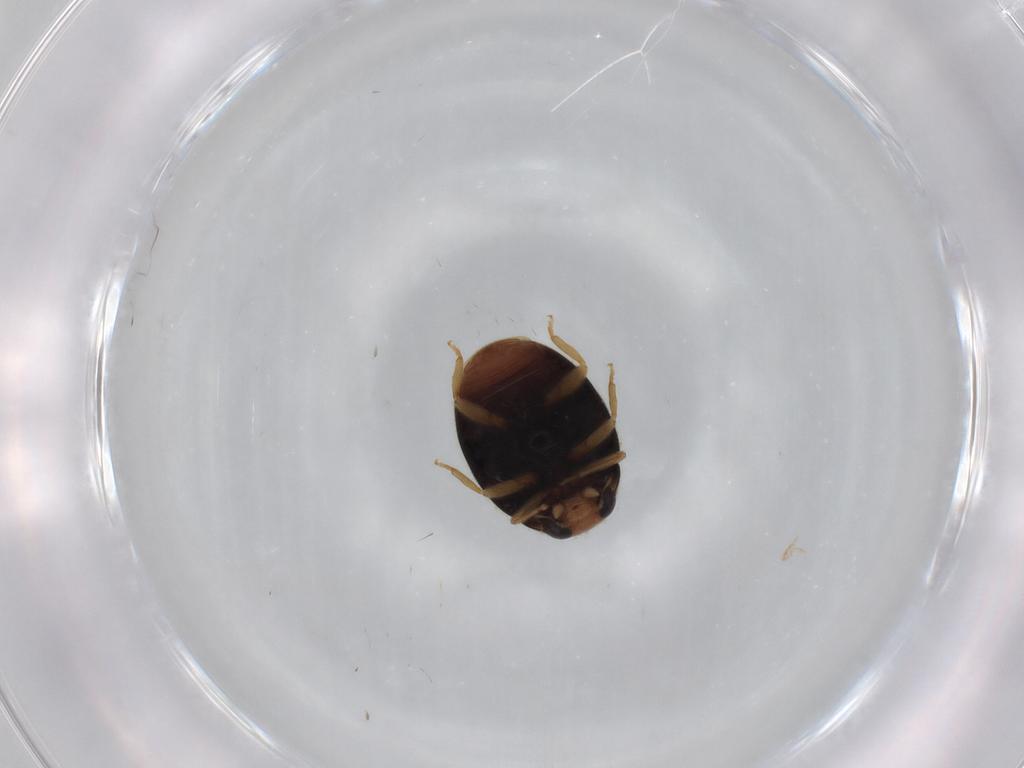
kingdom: Animalia
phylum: Arthropoda
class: Insecta
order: Coleoptera
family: Coccinellidae
